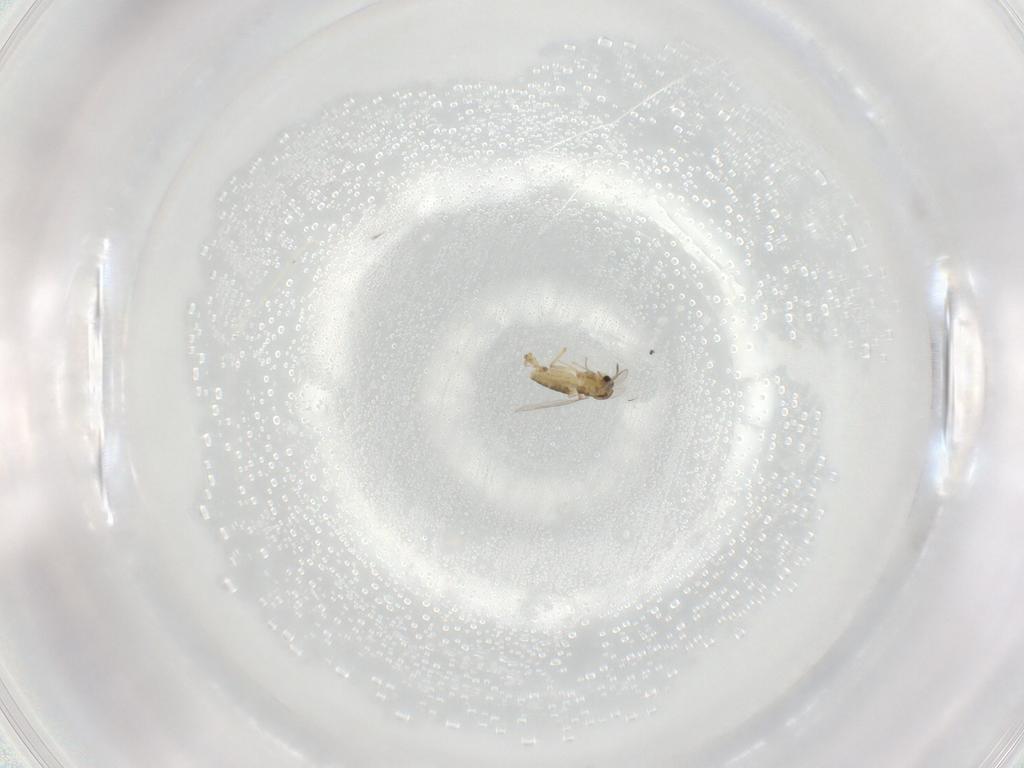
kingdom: Animalia
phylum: Arthropoda
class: Insecta
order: Diptera
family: Chironomidae
